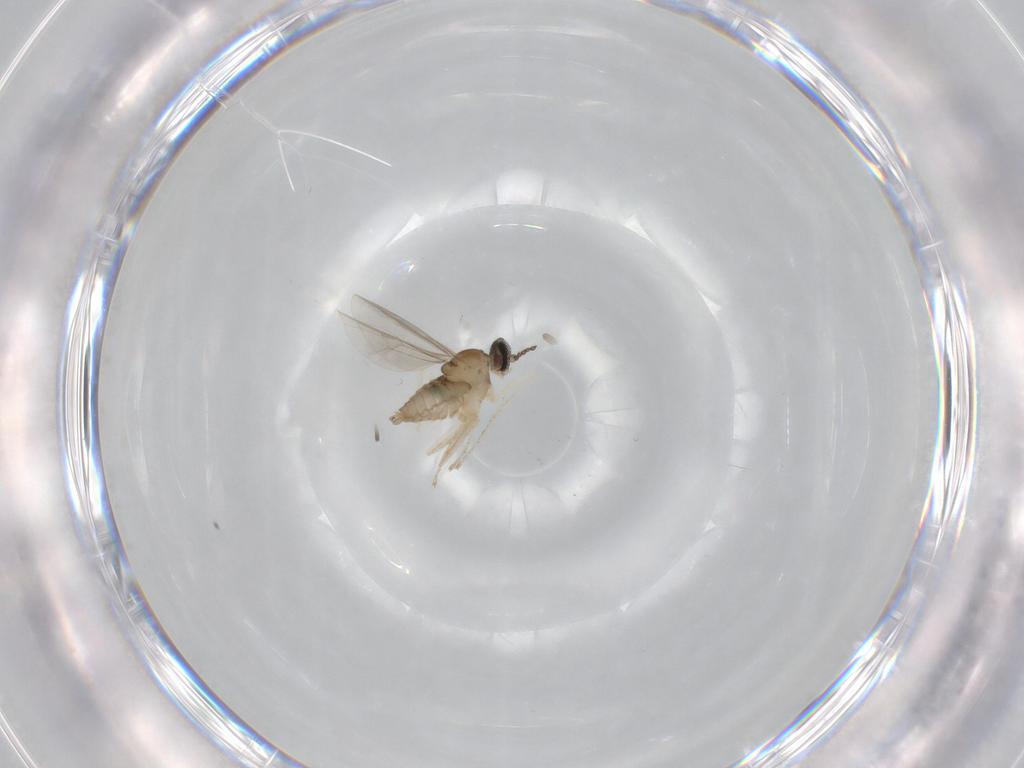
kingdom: Animalia
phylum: Arthropoda
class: Insecta
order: Diptera
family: Cecidomyiidae
